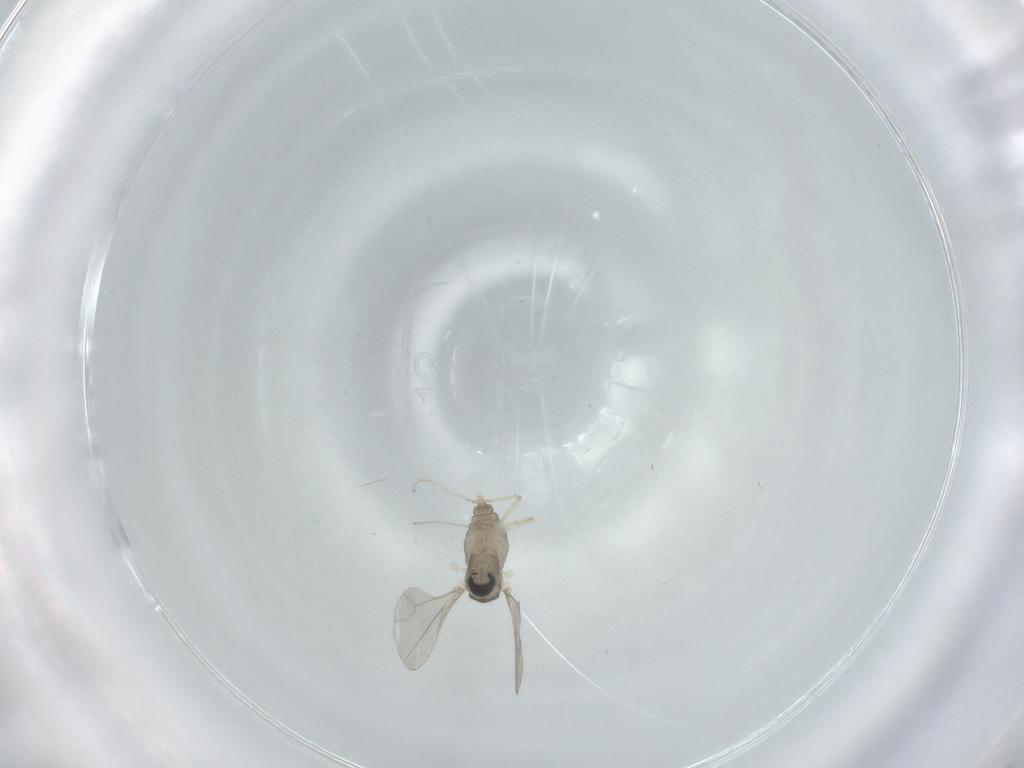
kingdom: Animalia
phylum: Arthropoda
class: Insecta
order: Diptera
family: Cecidomyiidae
